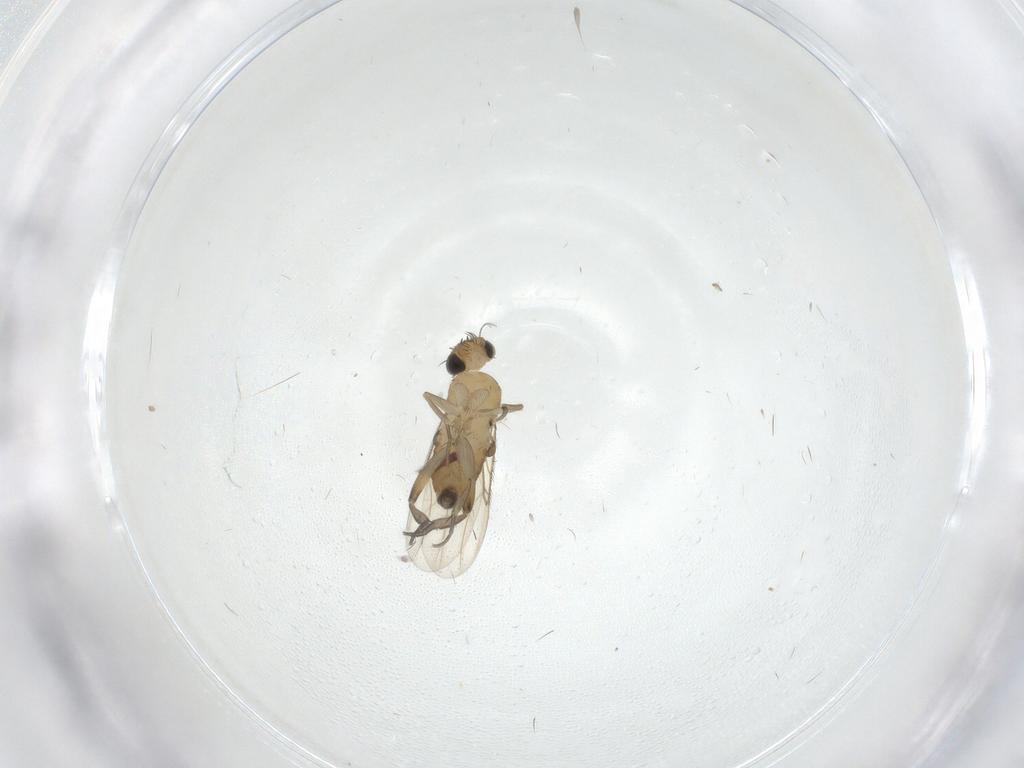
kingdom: Animalia
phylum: Arthropoda
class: Insecta
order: Diptera
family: Phoridae
